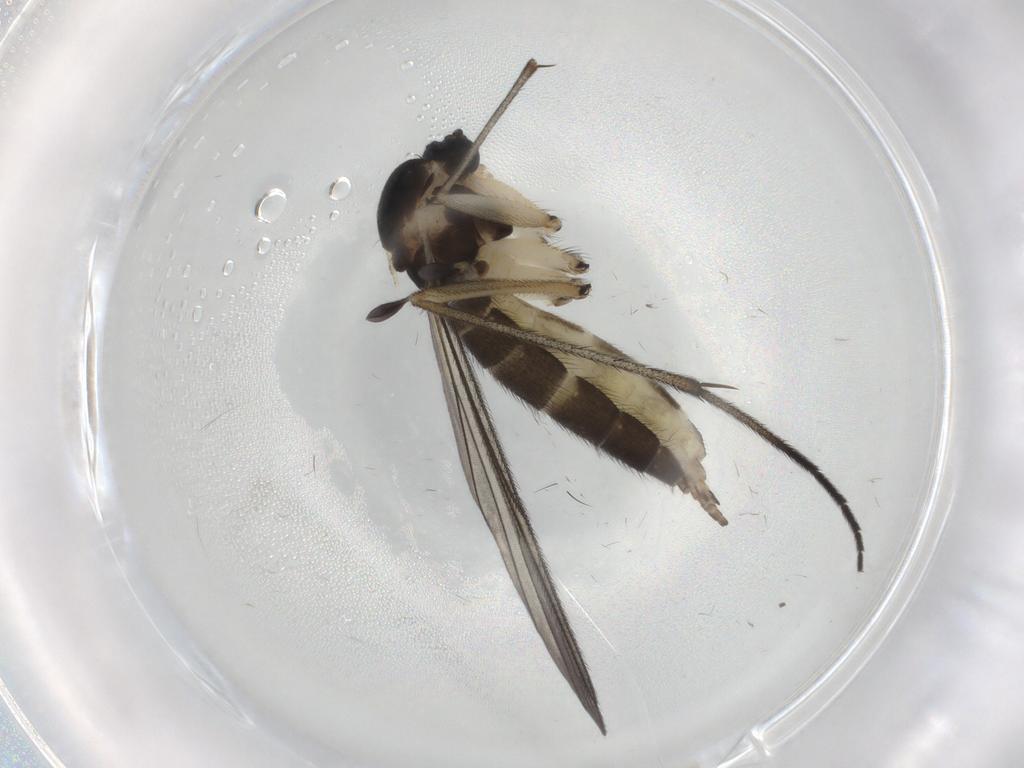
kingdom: Animalia
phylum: Arthropoda
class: Insecta
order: Diptera
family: Sciaridae
